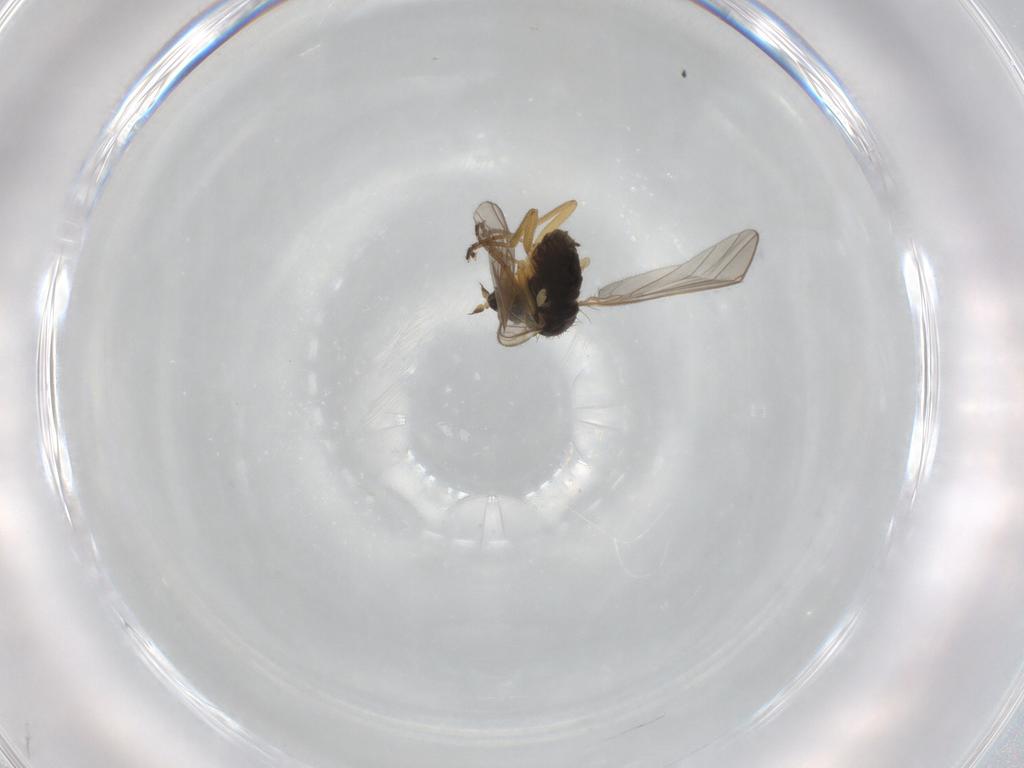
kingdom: Animalia
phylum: Arthropoda
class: Insecta
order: Diptera
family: Hybotidae
